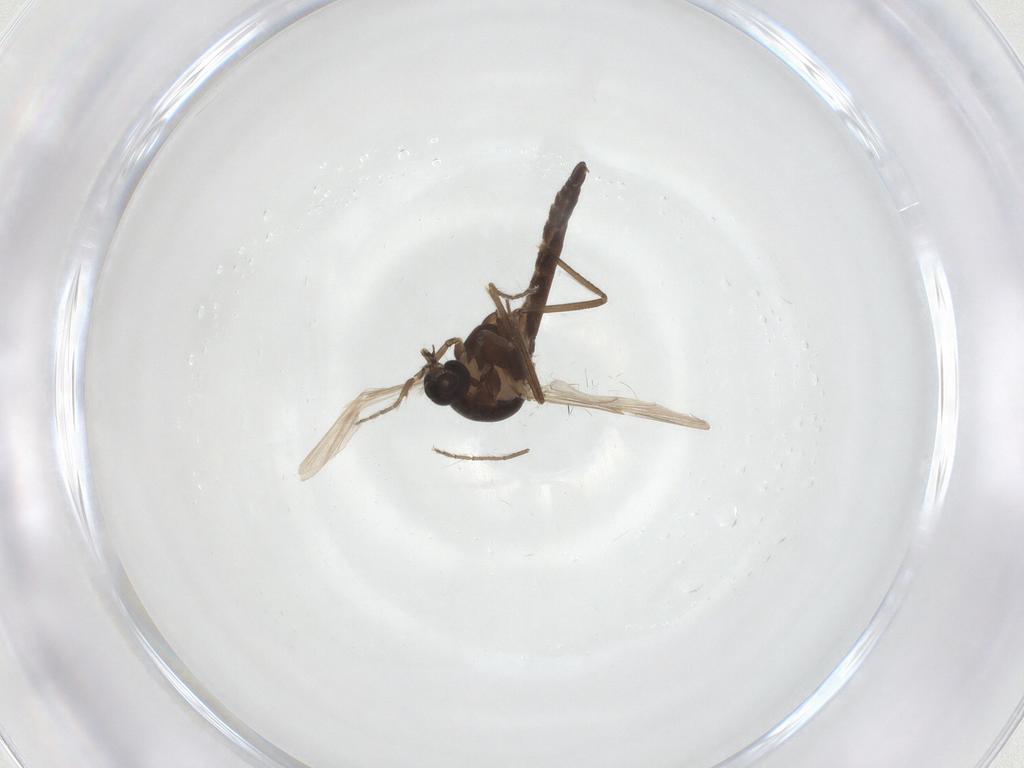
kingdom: Animalia
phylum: Arthropoda
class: Insecta
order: Diptera
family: Ceratopogonidae
